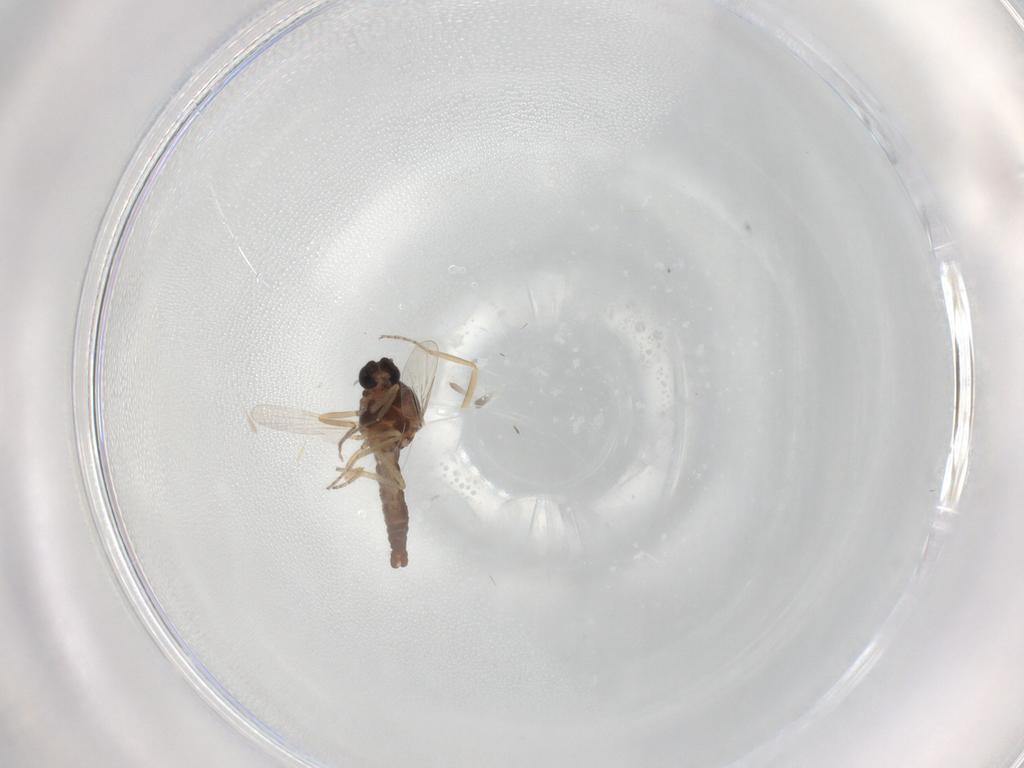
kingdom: Animalia
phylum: Arthropoda
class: Insecta
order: Diptera
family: Ceratopogonidae
